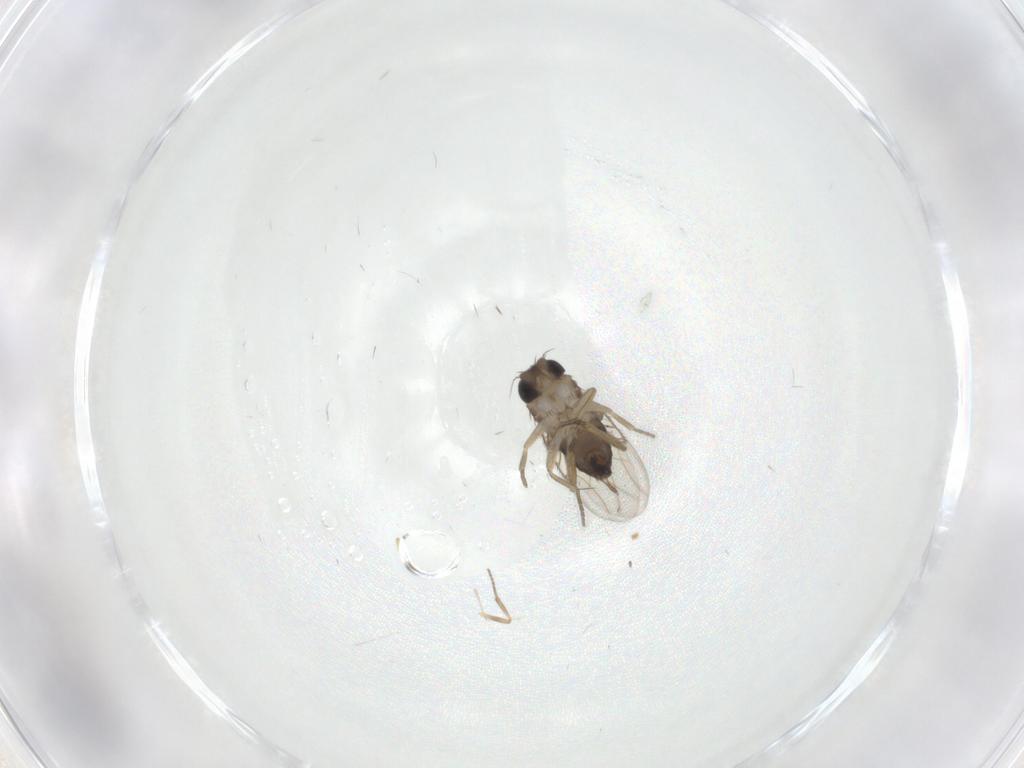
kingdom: Animalia
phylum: Arthropoda
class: Insecta
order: Diptera
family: Ceratopogonidae
